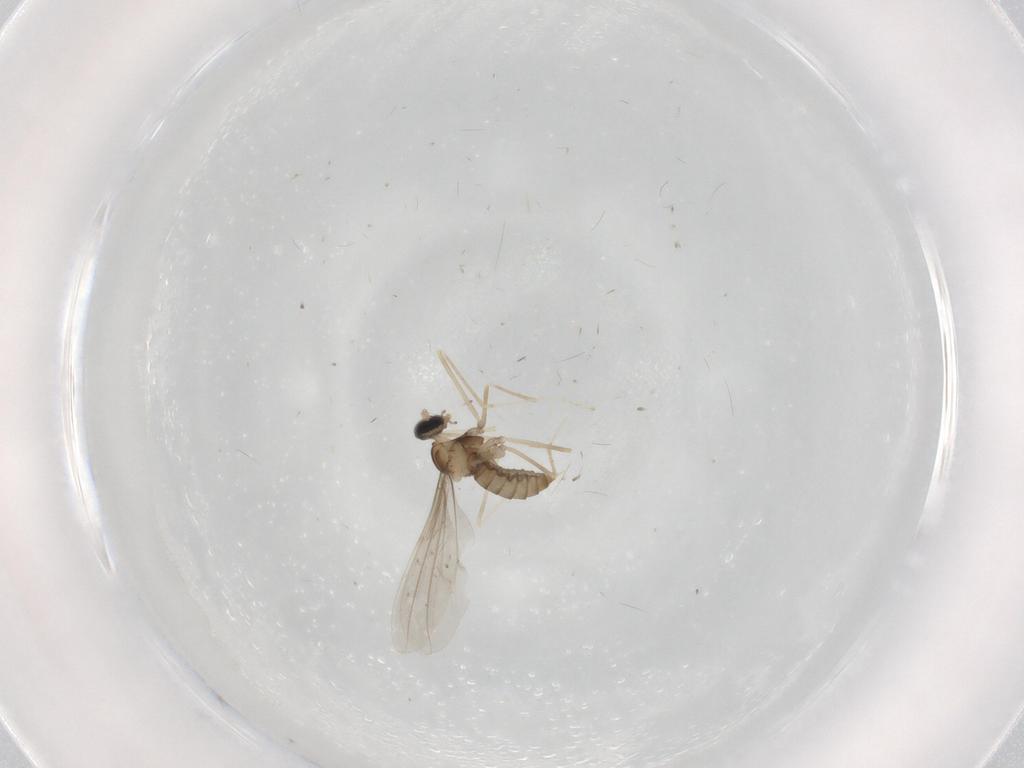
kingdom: Animalia
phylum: Arthropoda
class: Insecta
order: Diptera
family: Cecidomyiidae
